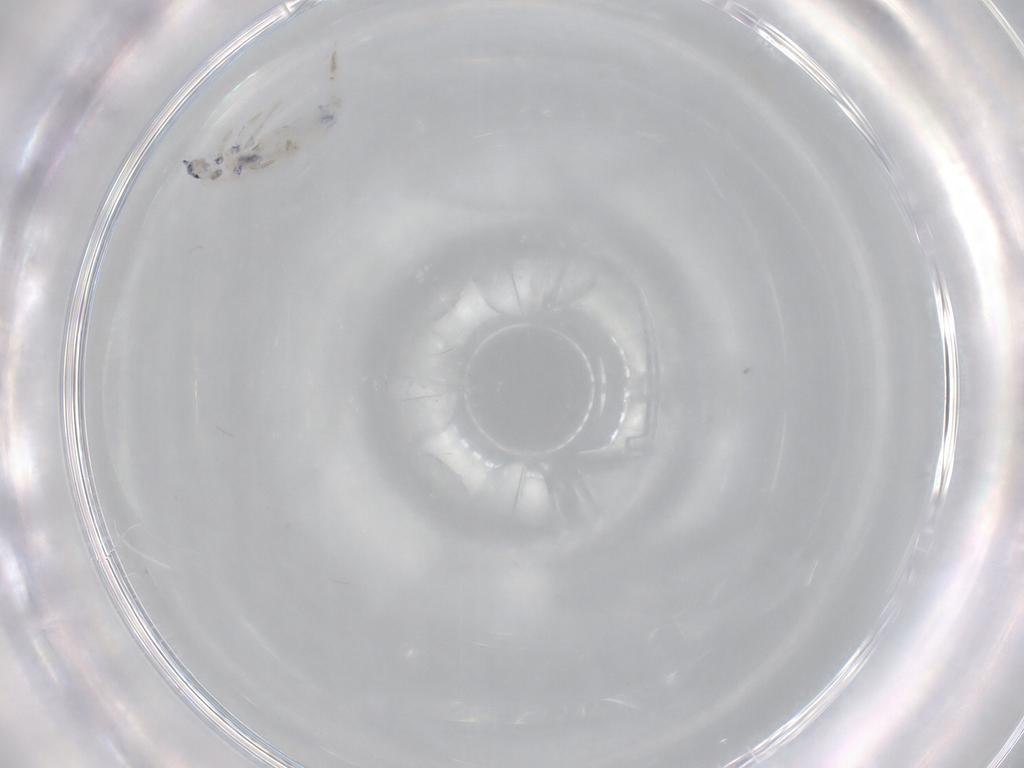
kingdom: Animalia
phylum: Arthropoda
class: Collembola
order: Entomobryomorpha
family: Entomobryidae
